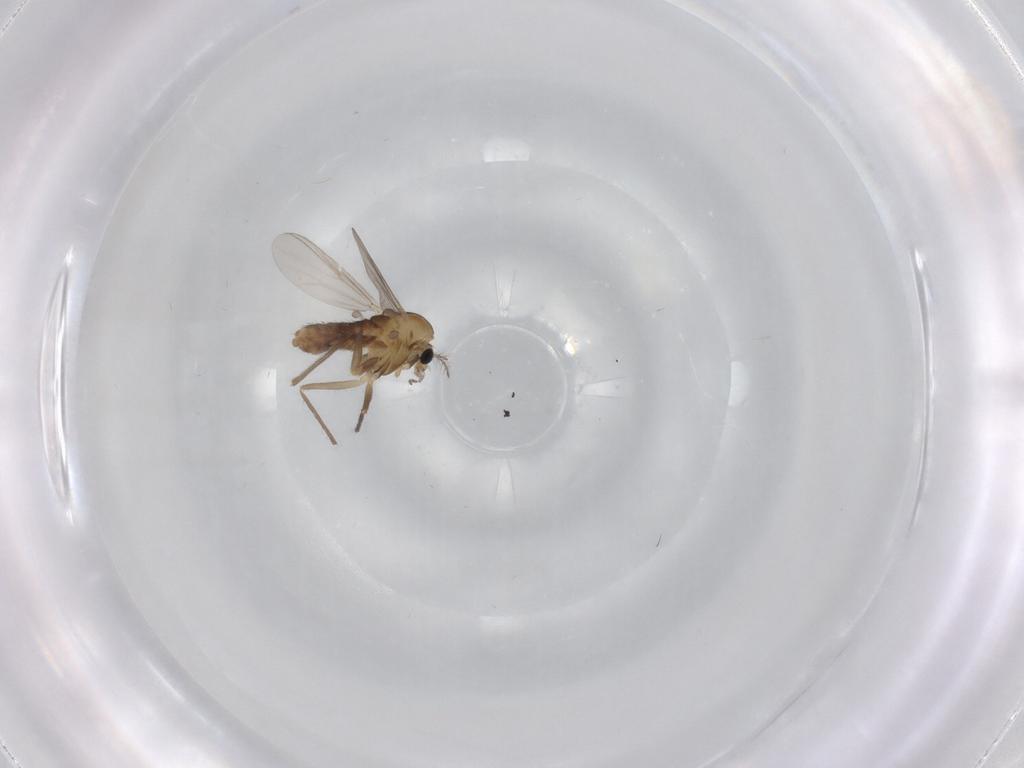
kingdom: Animalia
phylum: Arthropoda
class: Insecta
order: Diptera
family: Chironomidae
